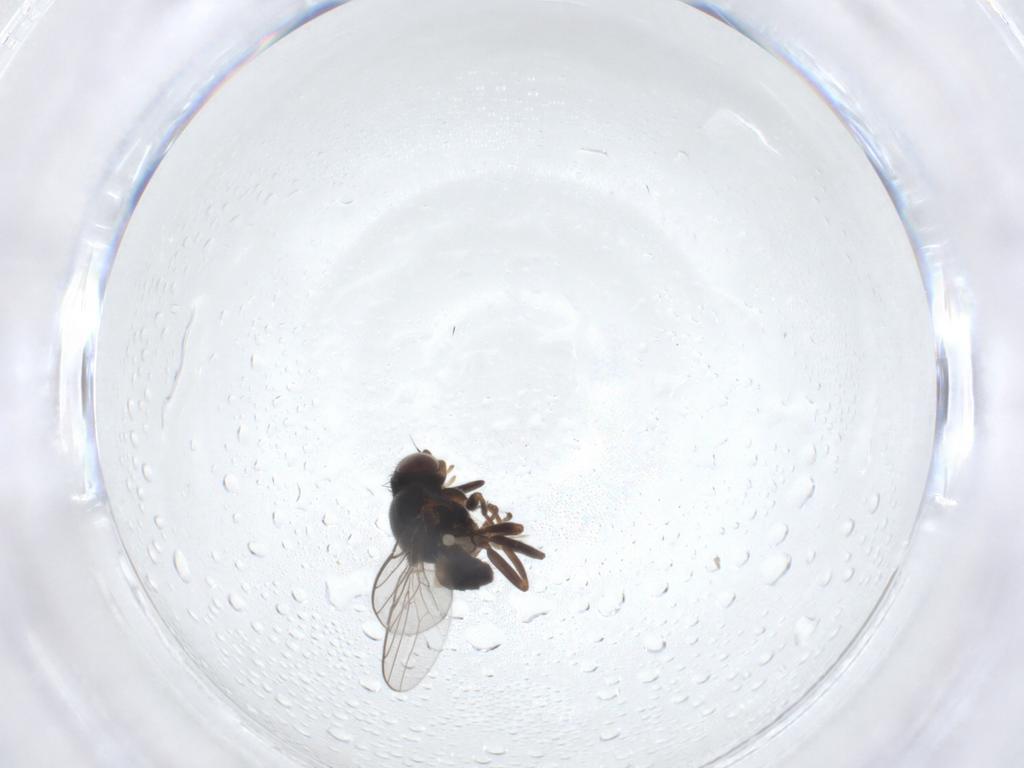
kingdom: Animalia
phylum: Arthropoda
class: Insecta
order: Diptera
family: Chloropidae
